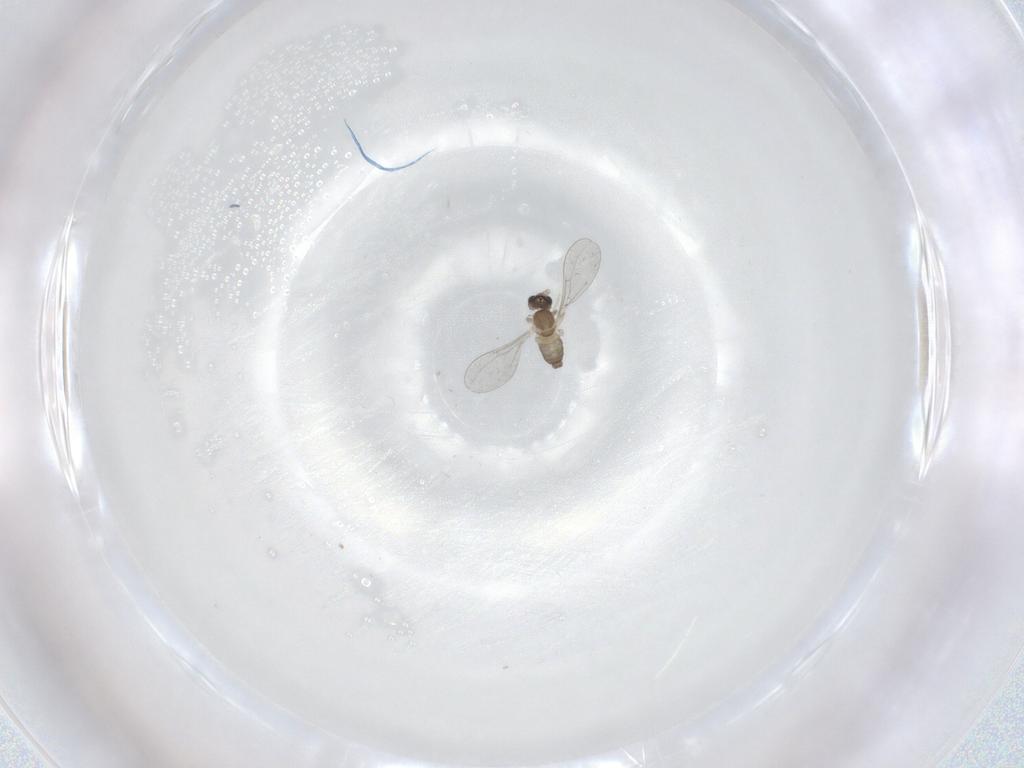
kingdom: Animalia
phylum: Arthropoda
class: Insecta
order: Diptera
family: Cecidomyiidae
